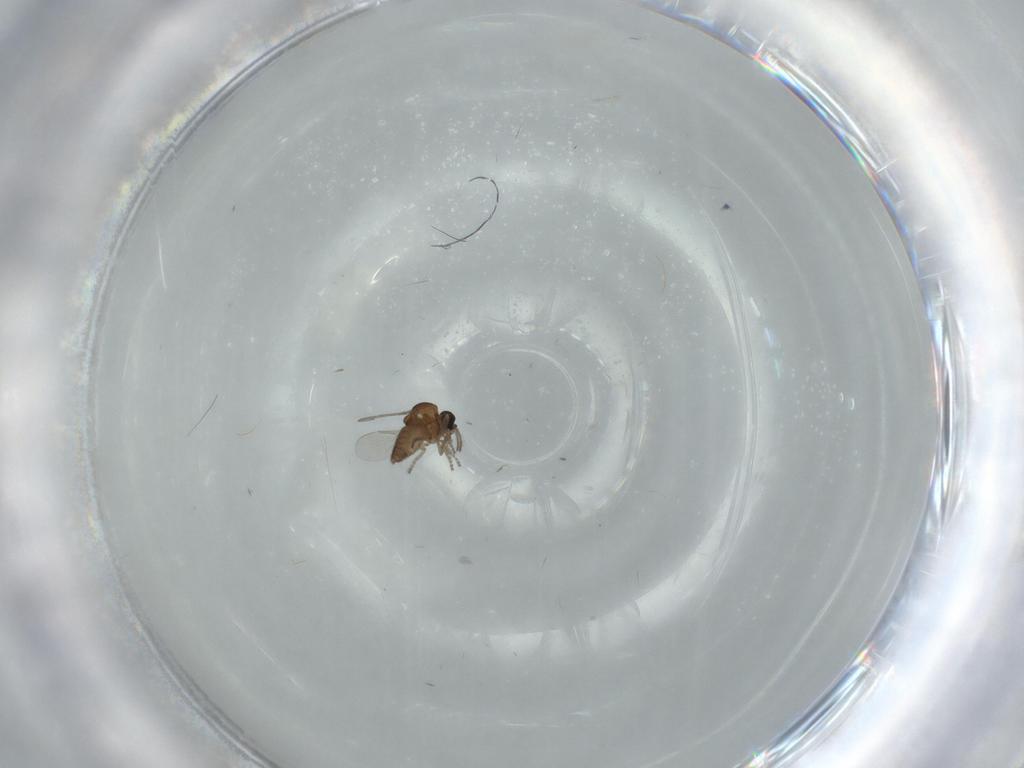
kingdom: Animalia
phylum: Arthropoda
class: Insecta
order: Diptera
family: Ceratopogonidae
